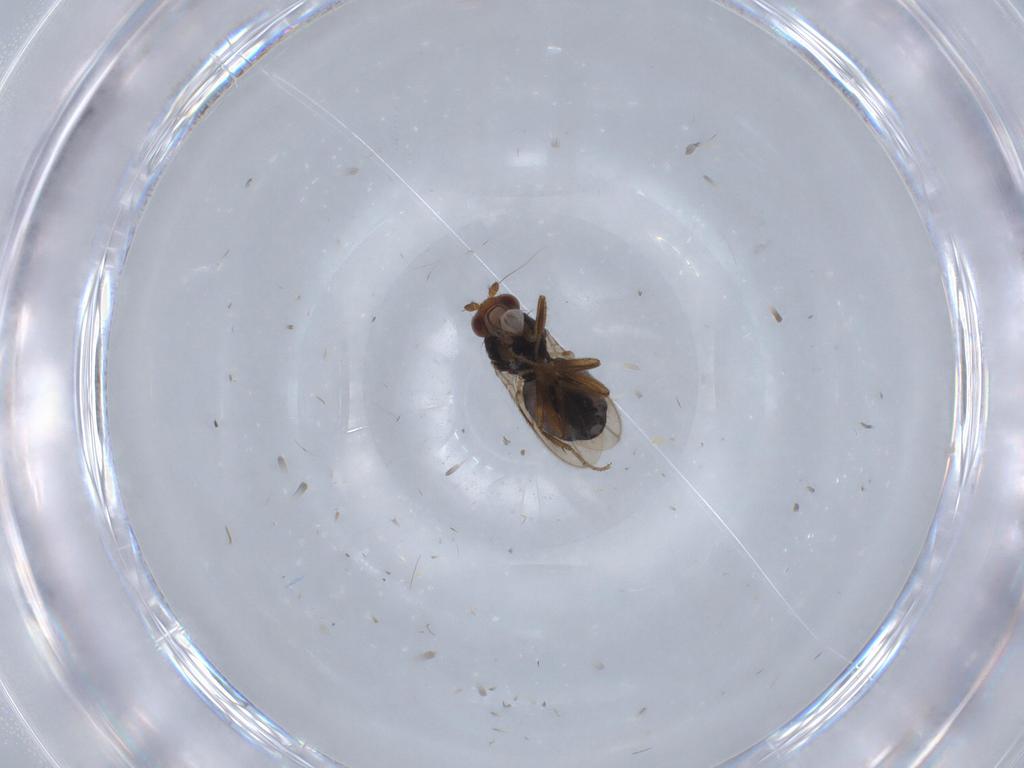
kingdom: Animalia
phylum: Arthropoda
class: Insecta
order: Diptera
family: Sphaeroceridae
